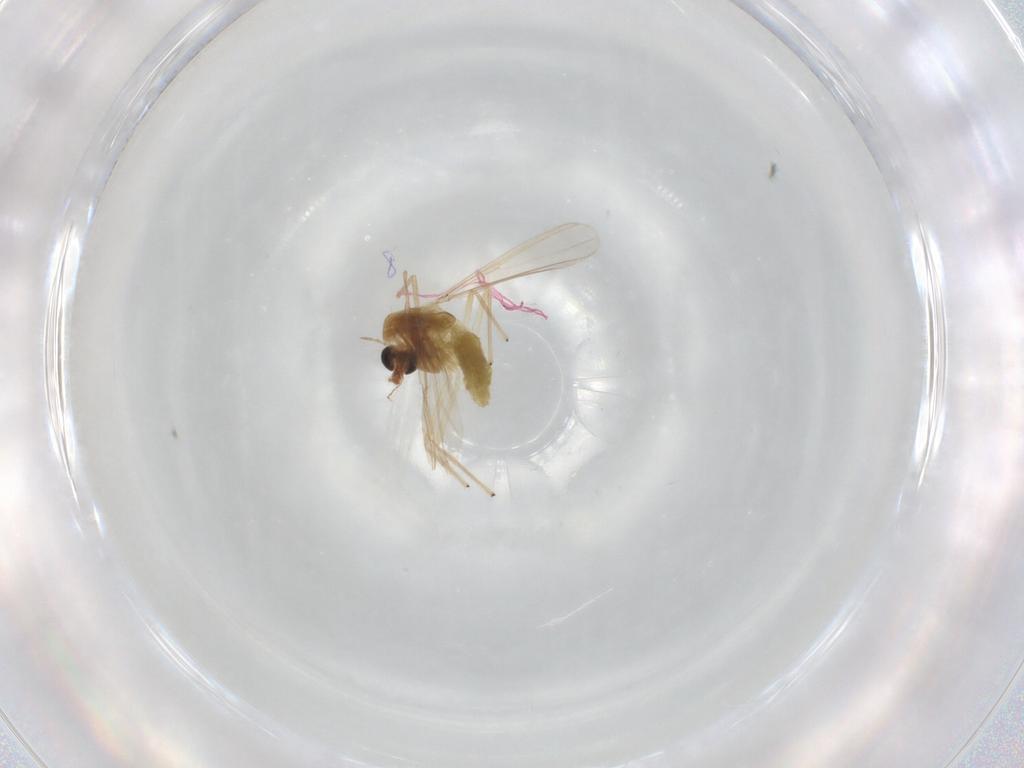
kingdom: Animalia
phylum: Arthropoda
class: Insecta
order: Diptera
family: Chironomidae
